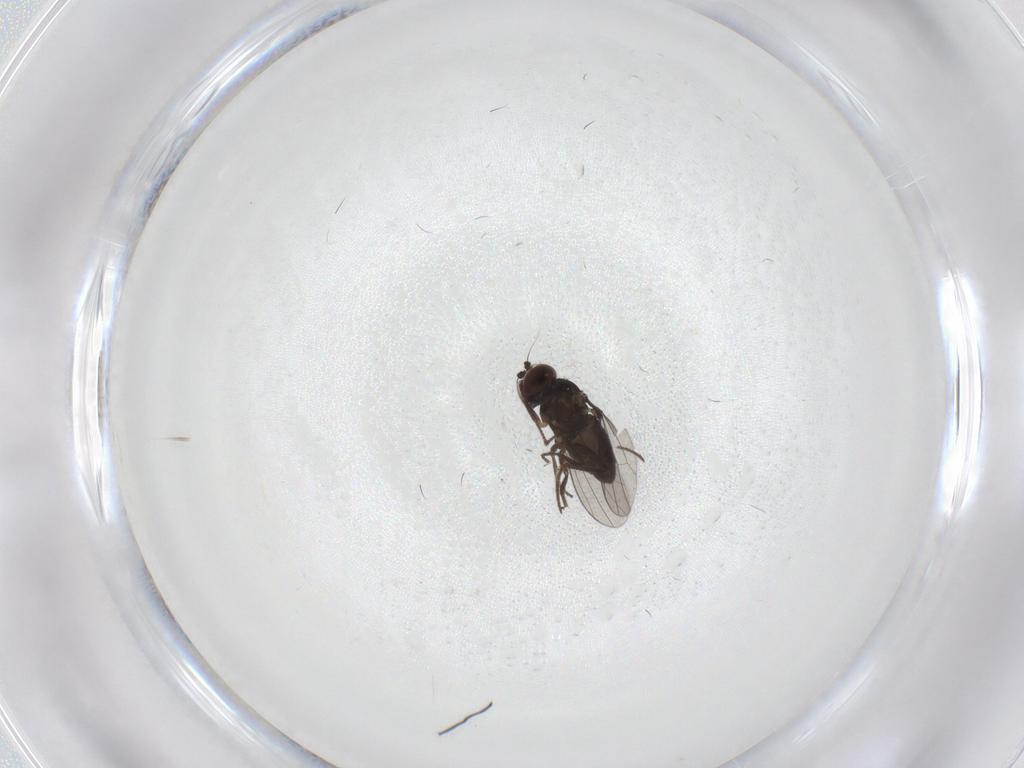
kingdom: Animalia
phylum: Arthropoda
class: Insecta
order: Diptera
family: Dolichopodidae
